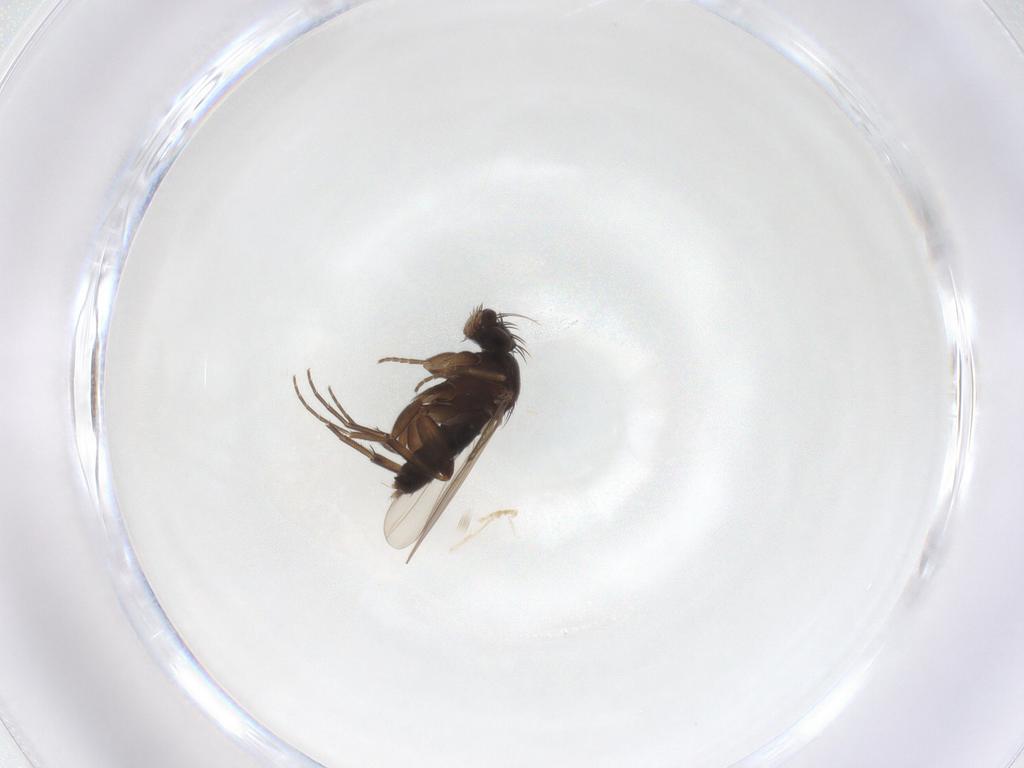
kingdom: Animalia
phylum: Arthropoda
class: Insecta
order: Diptera
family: Phoridae
